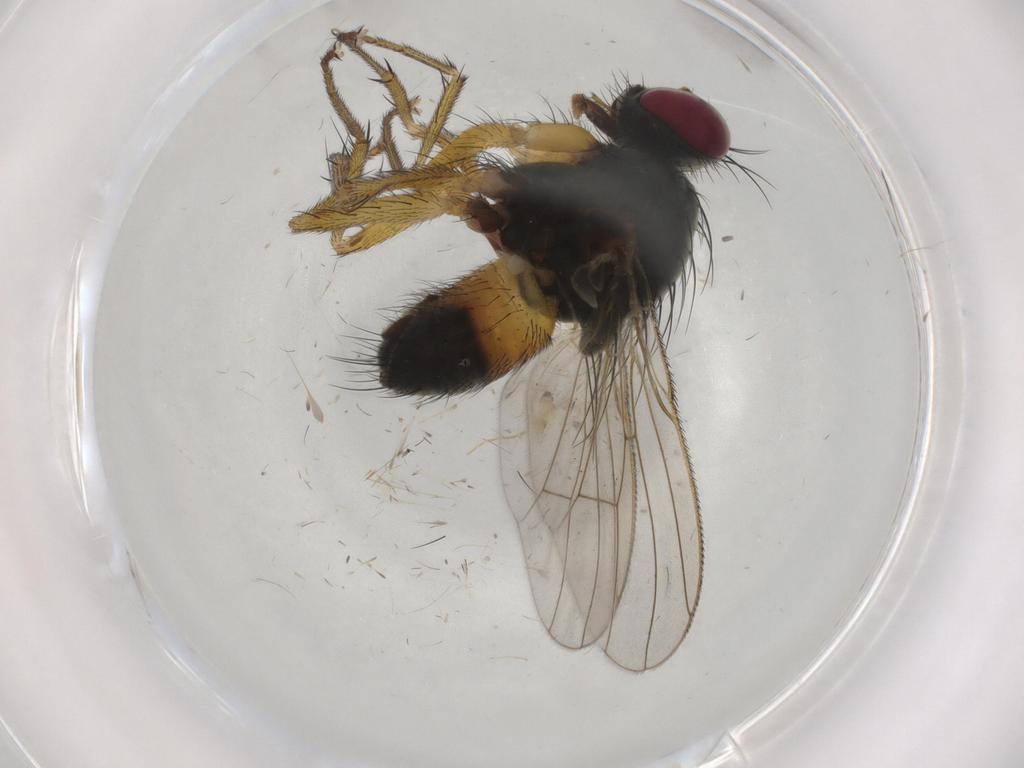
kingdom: Animalia
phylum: Arthropoda
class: Insecta
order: Diptera
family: Muscidae
